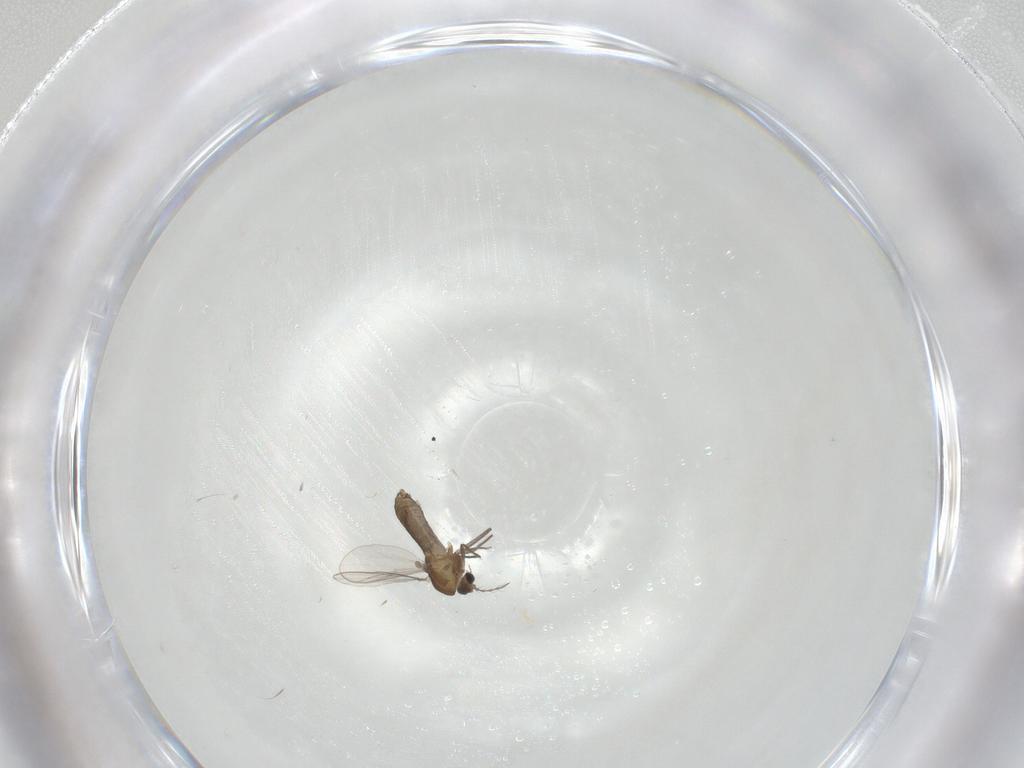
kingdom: Animalia
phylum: Arthropoda
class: Insecta
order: Diptera
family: Chironomidae
